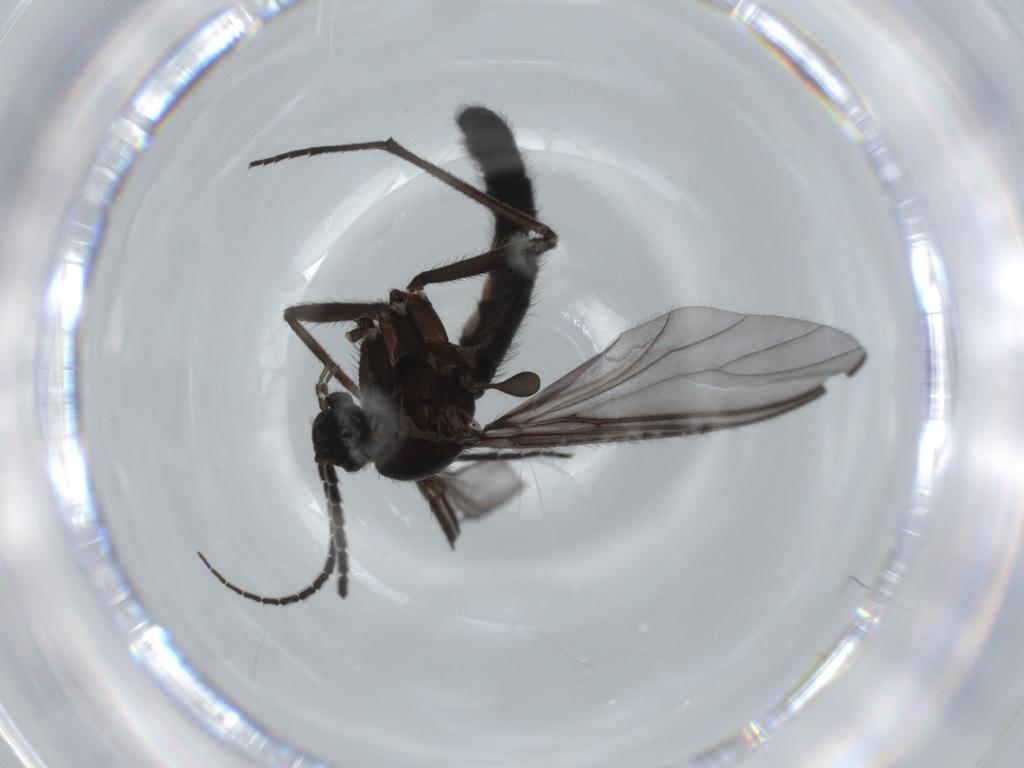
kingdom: Animalia
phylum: Arthropoda
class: Insecta
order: Diptera
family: Cecidomyiidae
